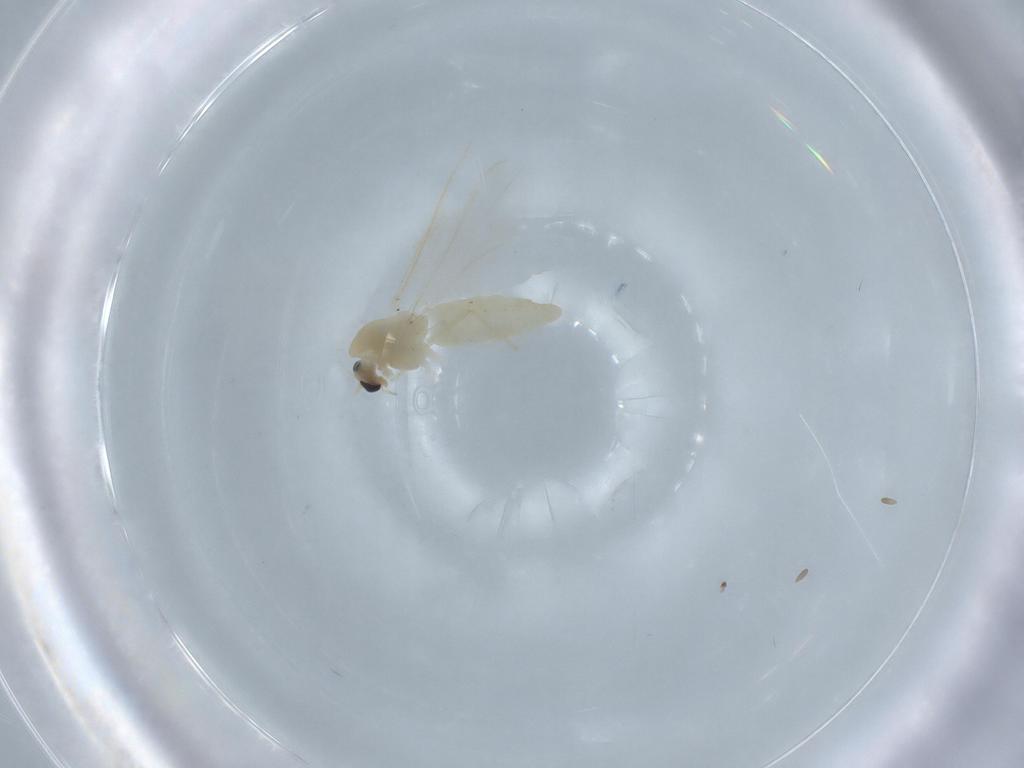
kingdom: Animalia
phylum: Arthropoda
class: Insecta
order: Diptera
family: Chironomidae
